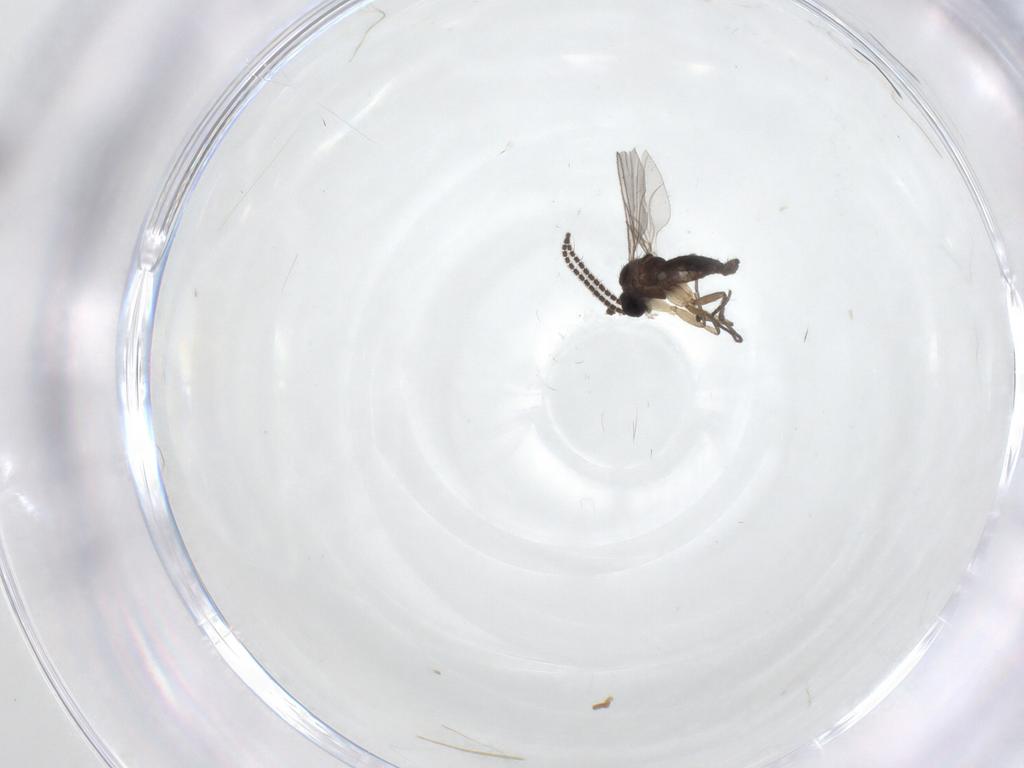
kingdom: Animalia
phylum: Arthropoda
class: Insecta
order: Diptera
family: Sciaridae
